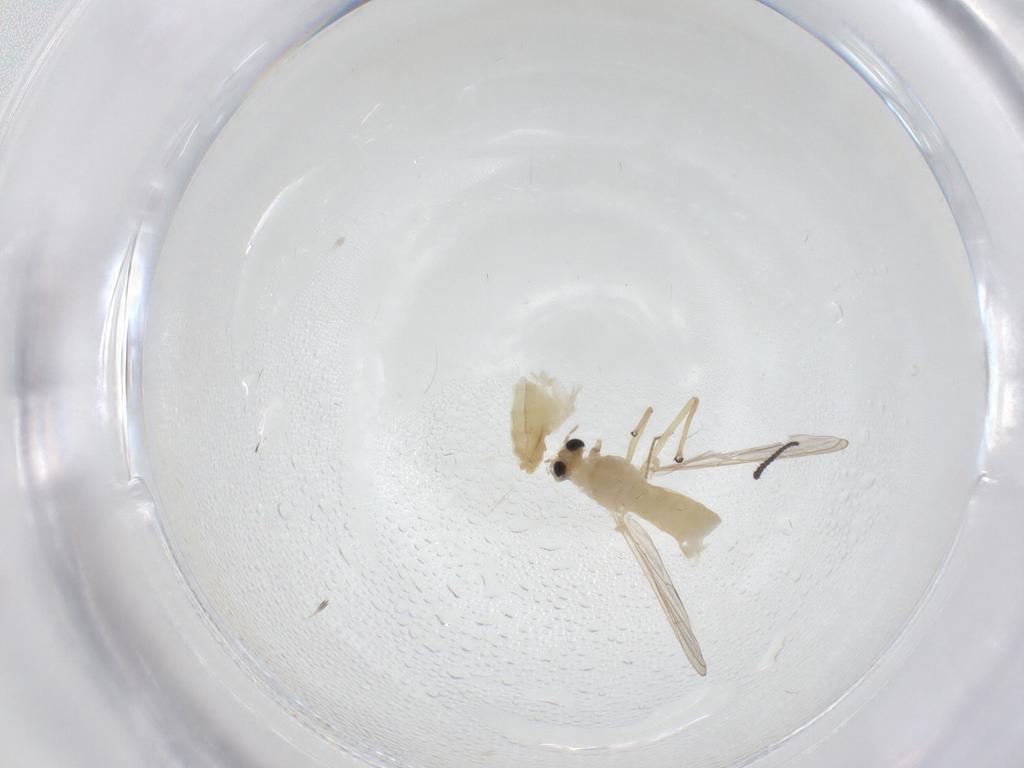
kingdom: Animalia
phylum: Arthropoda
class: Insecta
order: Diptera
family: Chironomidae
